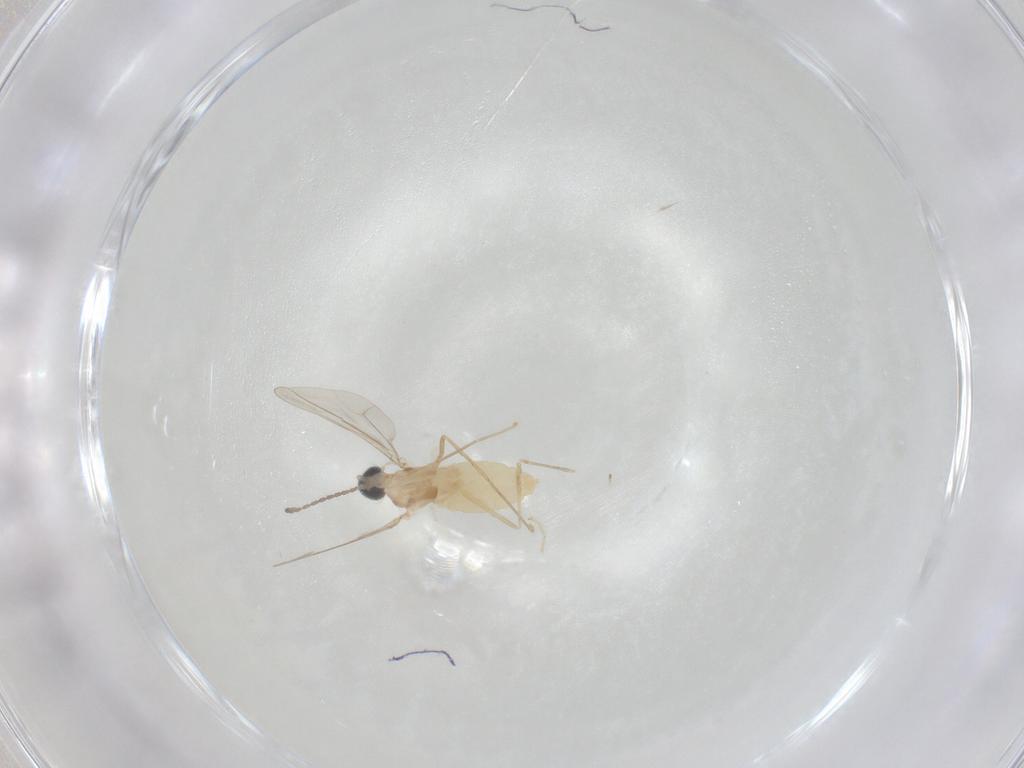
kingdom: Animalia
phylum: Arthropoda
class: Insecta
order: Diptera
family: Cecidomyiidae
